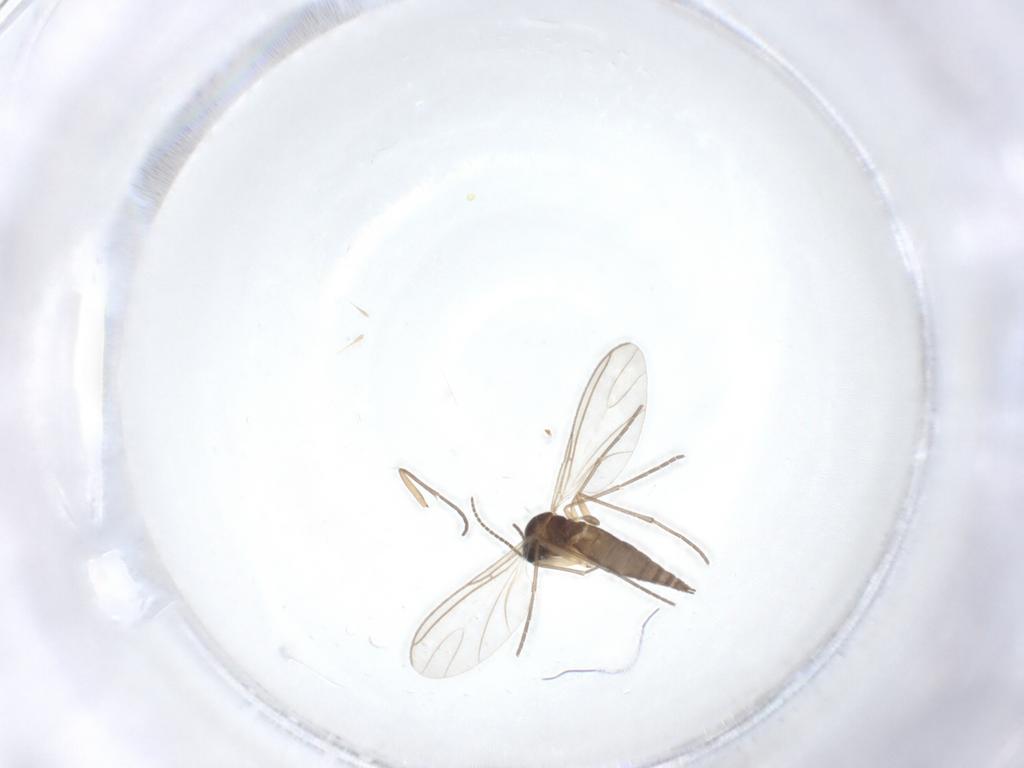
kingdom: Animalia
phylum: Arthropoda
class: Insecta
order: Diptera
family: Sciaridae
